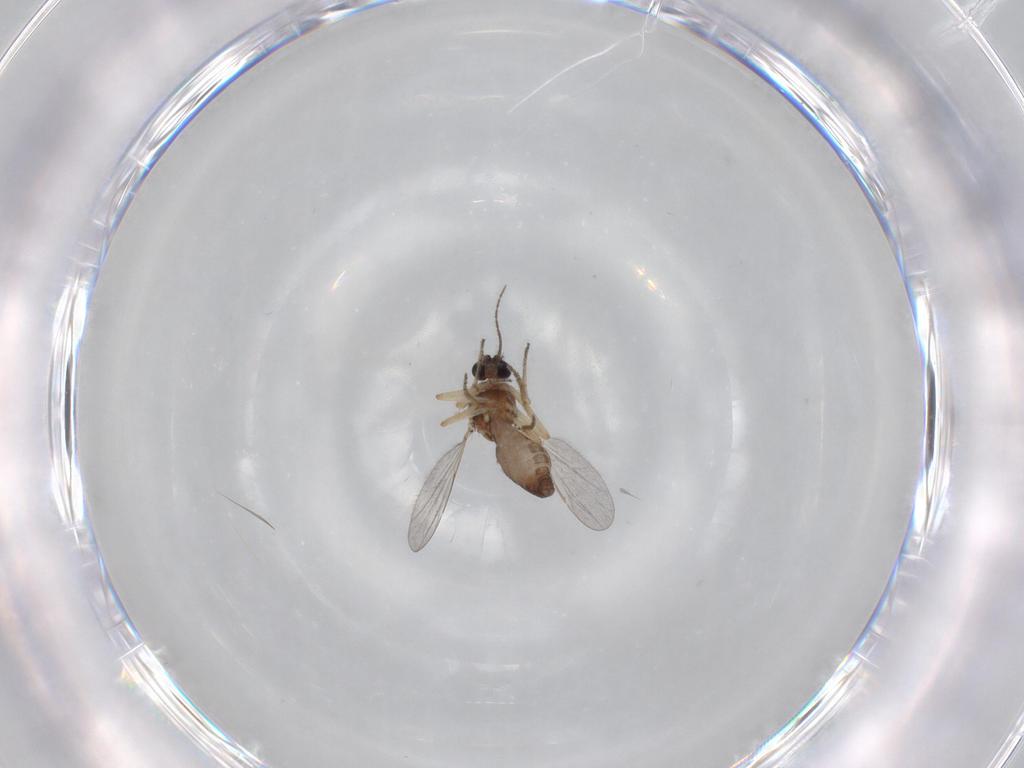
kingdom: Animalia
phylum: Arthropoda
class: Insecta
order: Diptera
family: Ceratopogonidae
